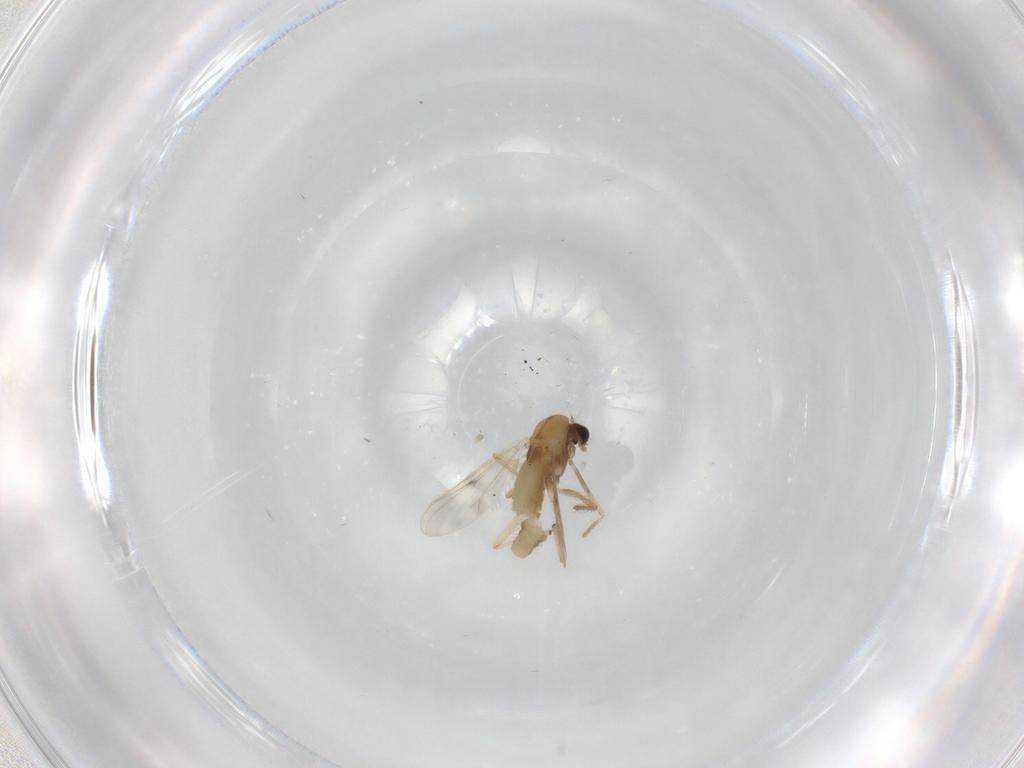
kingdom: Animalia
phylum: Arthropoda
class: Insecta
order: Diptera
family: Chironomidae
